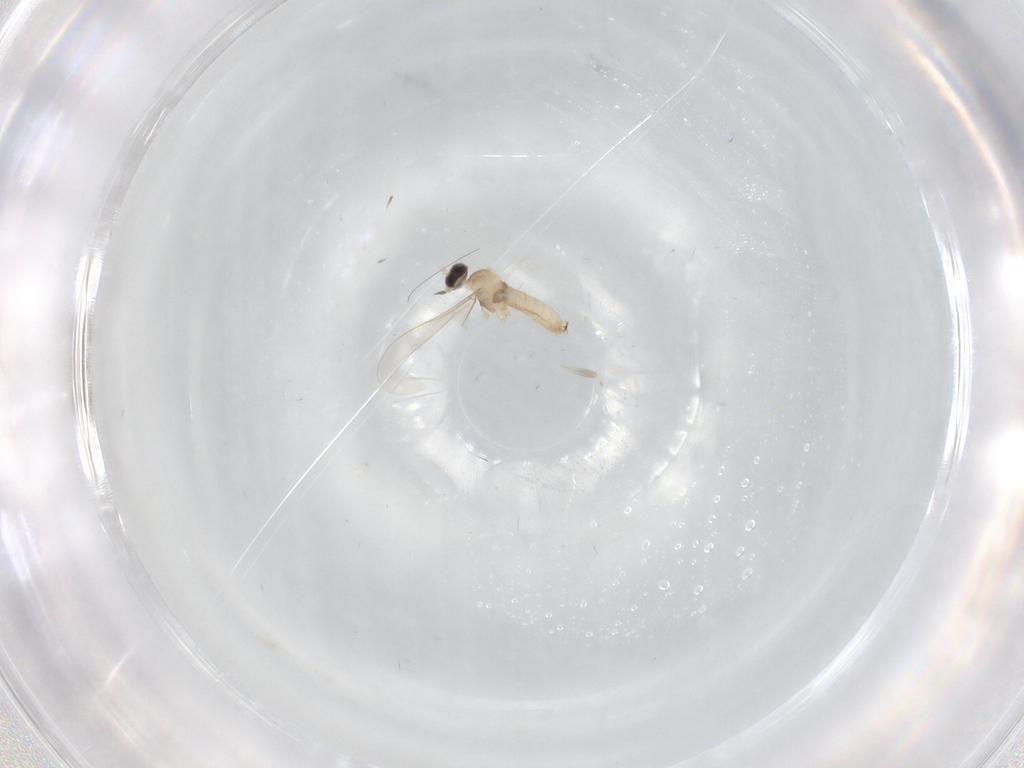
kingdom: Animalia
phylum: Arthropoda
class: Insecta
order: Diptera
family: Cecidomyiidae
